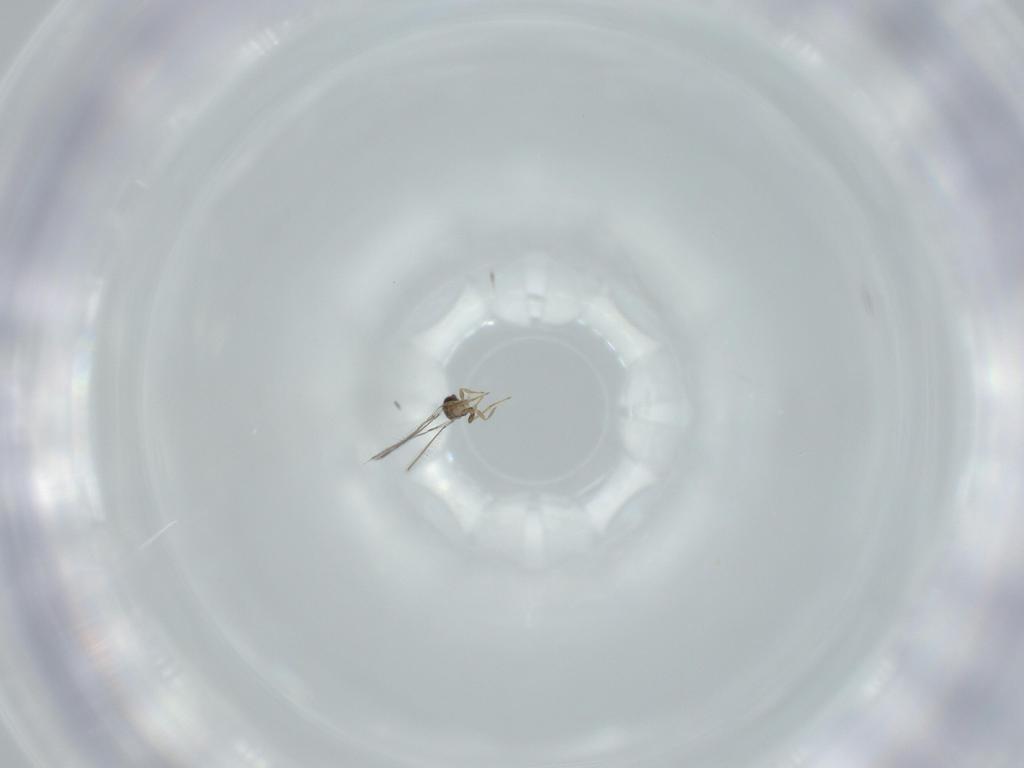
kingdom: Animalia
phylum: Arthropoda
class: Insecta
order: Hymenoptera
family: Mymaridae
